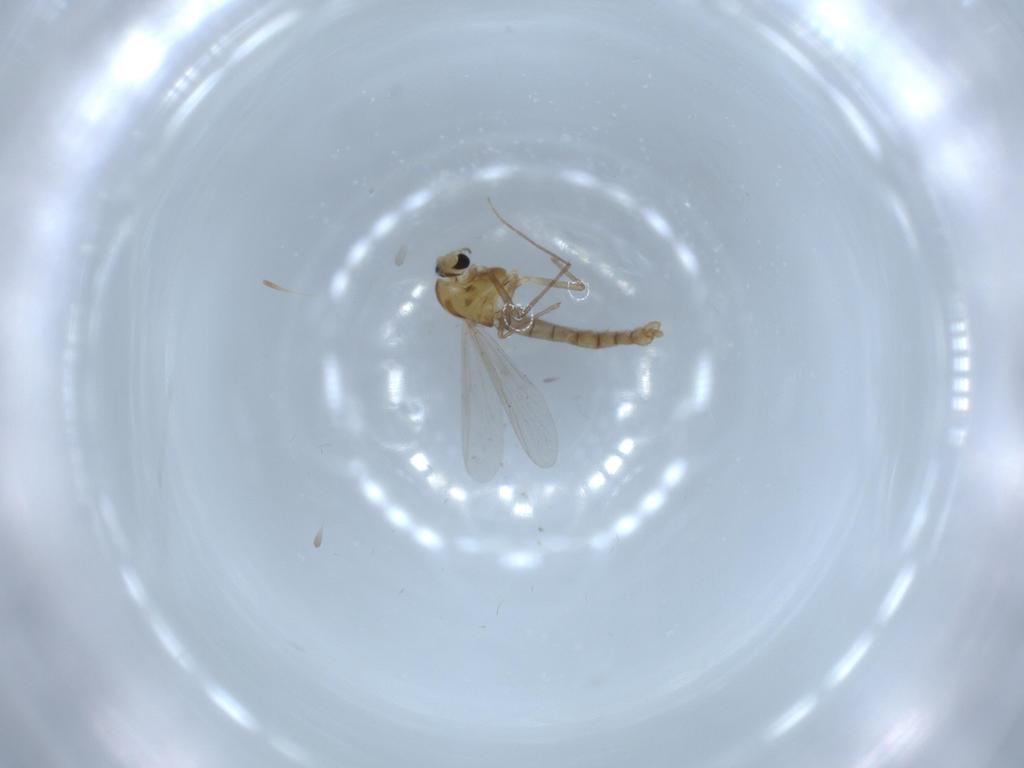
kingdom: Animalia
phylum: Arthropoda
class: Insecta
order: Diptera
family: Chironomidae
